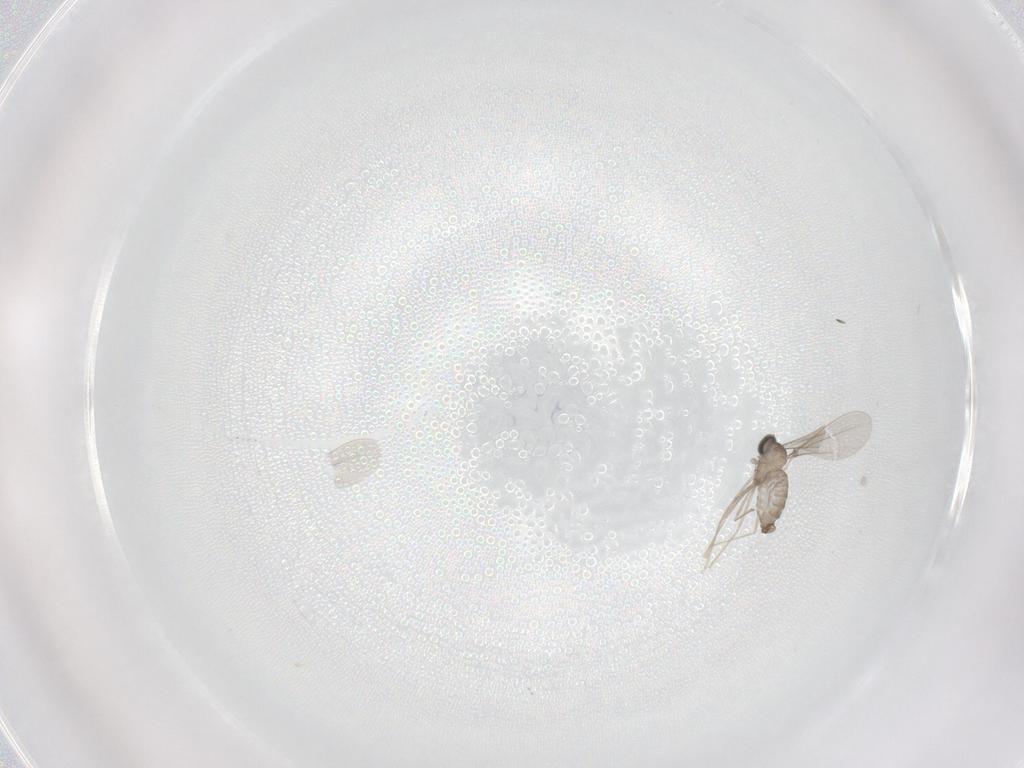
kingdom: Animalia
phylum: Arthropoda
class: Insecta
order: Diptera
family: Cecidomyiidae
